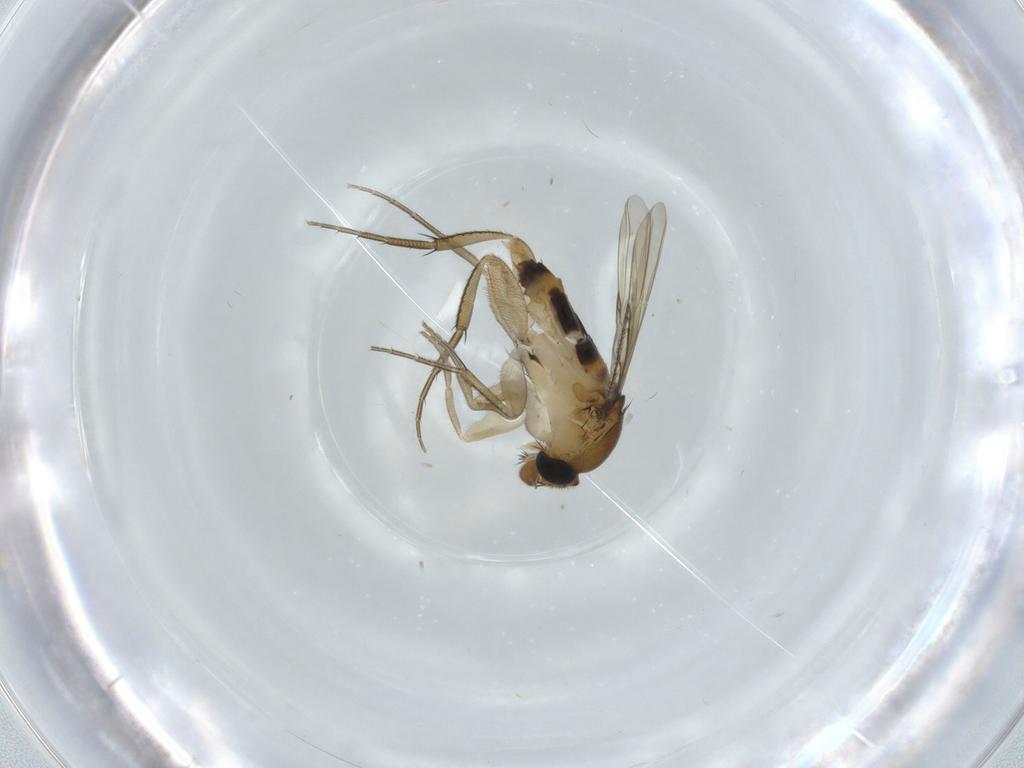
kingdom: Animalia
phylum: Arthropoda
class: Insecta
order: Diptera
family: Phoridae
